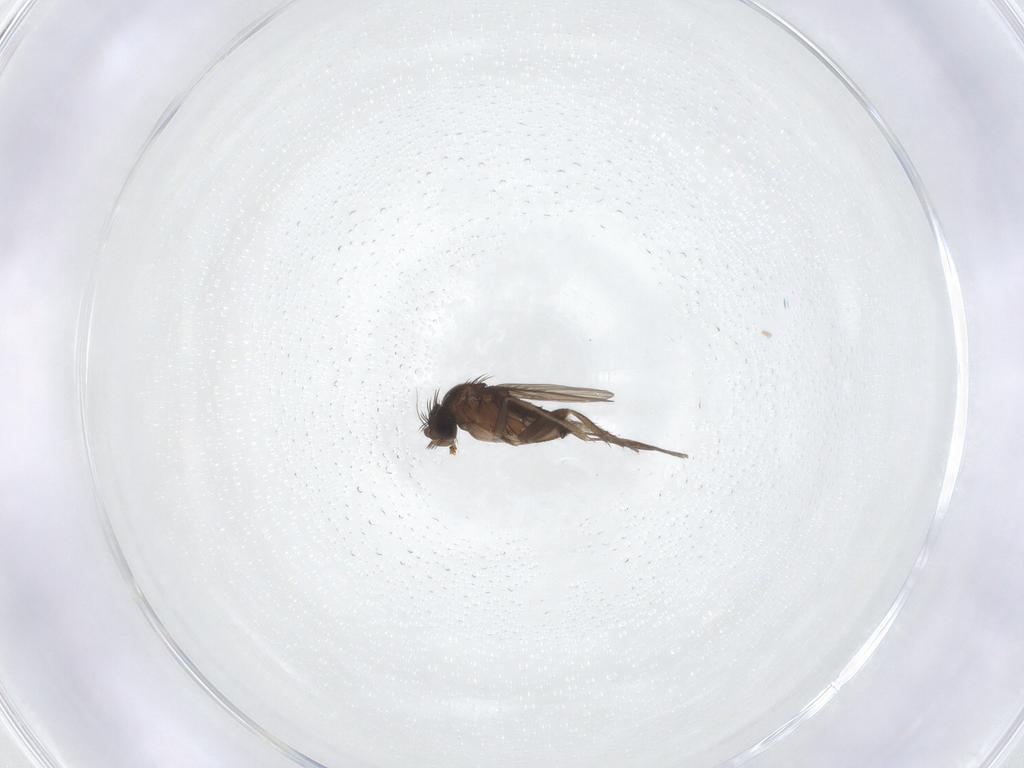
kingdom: Animalia
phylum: Arthropoda
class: Insecta
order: Diptera
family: Phoridae
